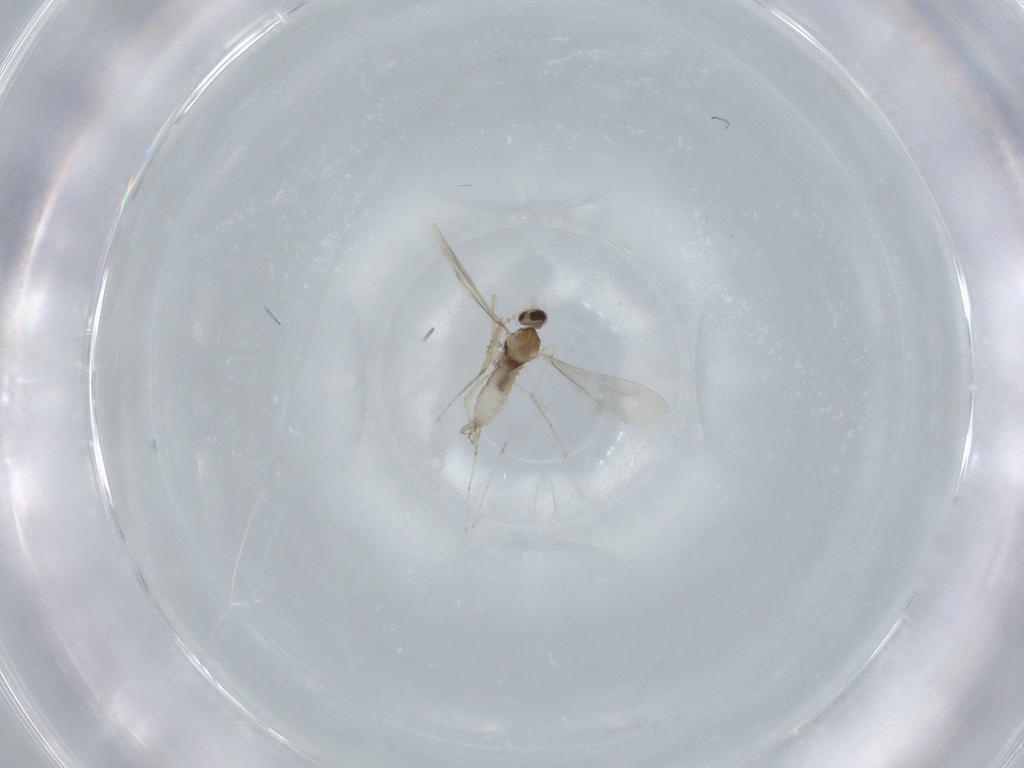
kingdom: Animalia
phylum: Arthropoda
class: Insecta
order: Diptera
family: Cecidomyiidae
